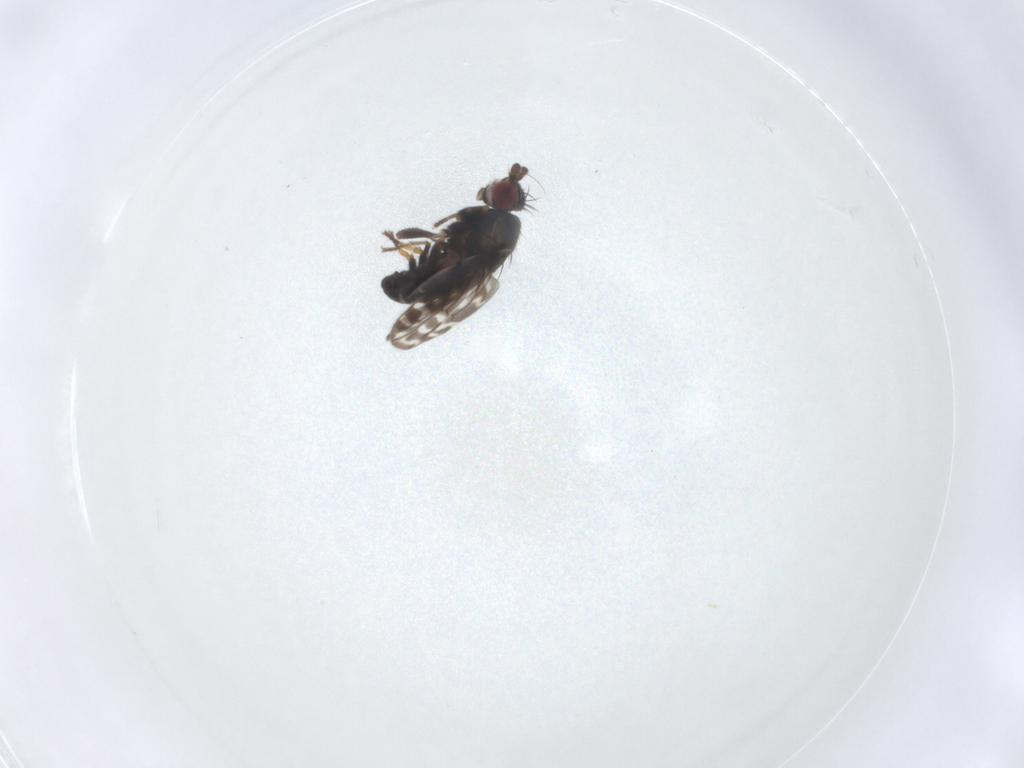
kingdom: Animalia
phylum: Arthropoda
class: Insecta
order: Diptera
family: Sphaeroceridae
